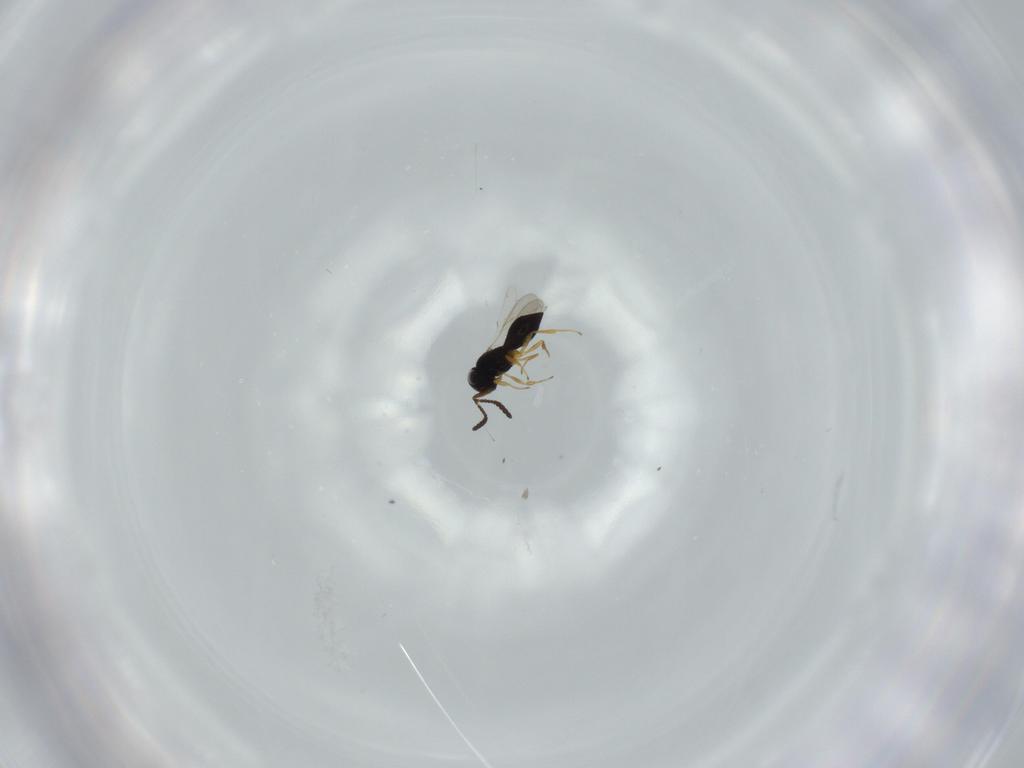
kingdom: Animalia
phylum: Arthropoda
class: Insecta
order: Hymenoptera
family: Scelionidae
